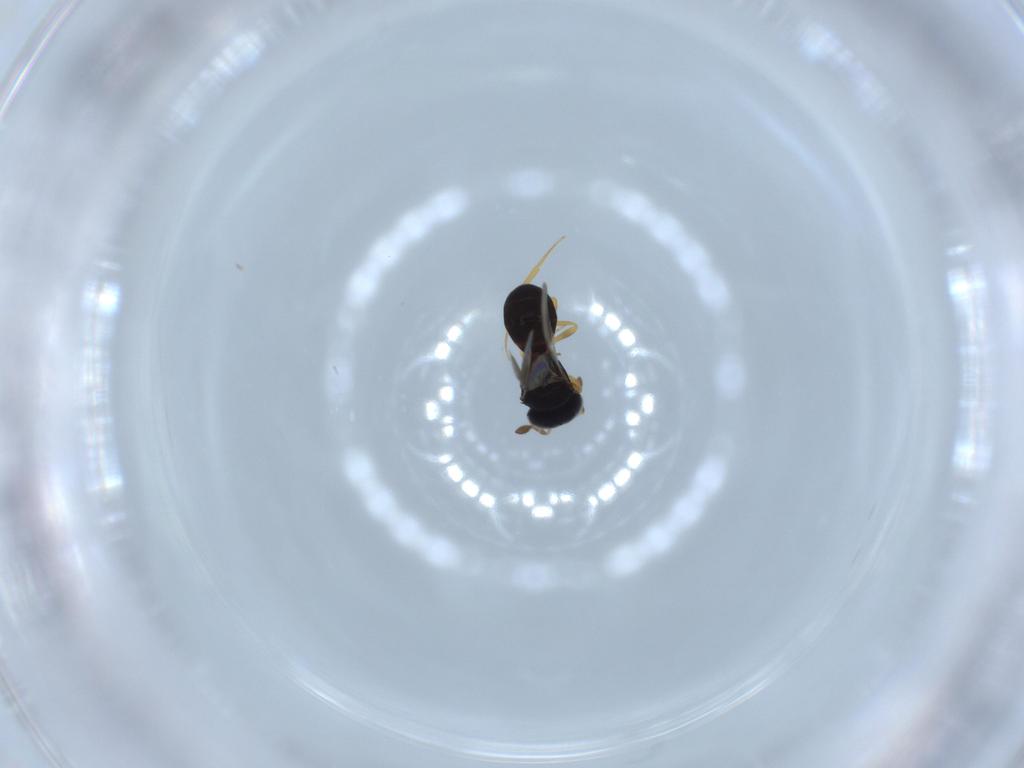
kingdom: Animalia
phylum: Arthropoda
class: Insecta
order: Hymenoptera
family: Scelionidae
